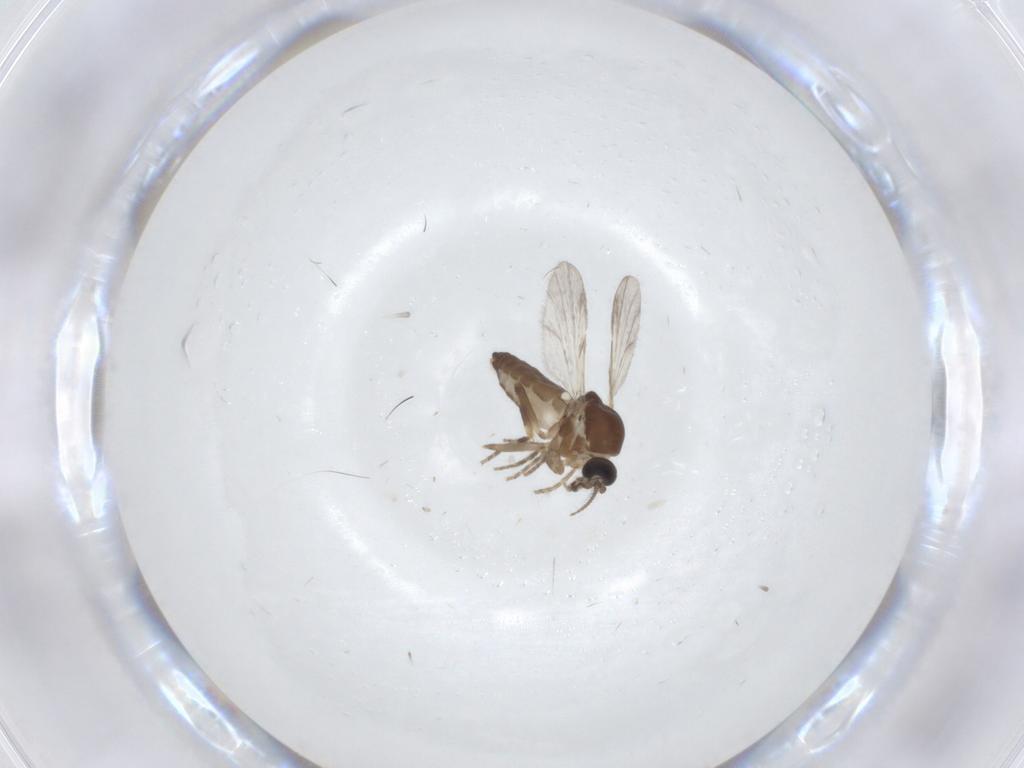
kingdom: Animalia
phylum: Arthropoda
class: Insecta
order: Diptera
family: Ceratopogonidae
